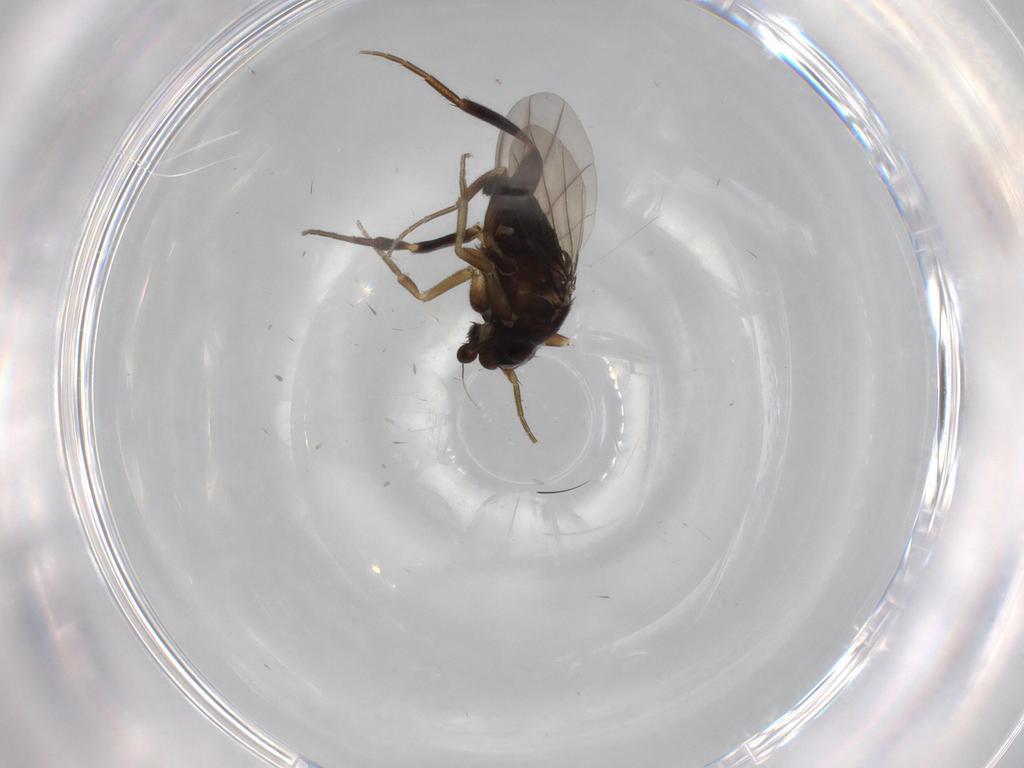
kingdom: Animalia
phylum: Arthropoda
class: Insecta
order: Diptera
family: Cecidomyiidae
